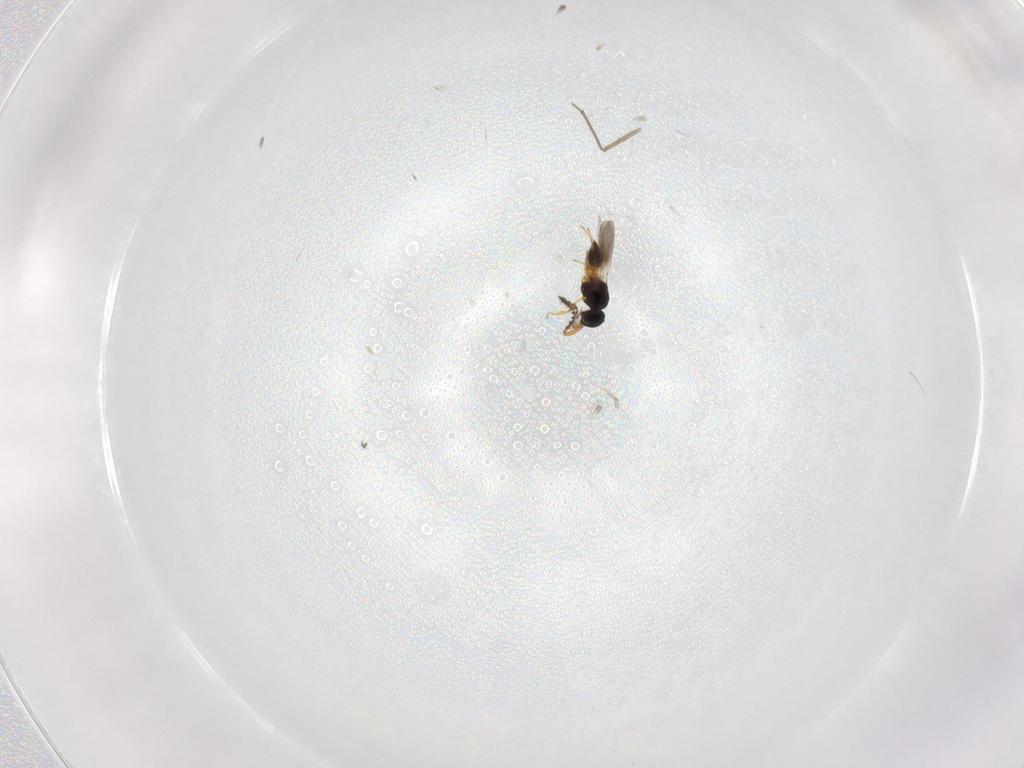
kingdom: Animalia
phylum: Arthropoda
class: Insecta
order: Hymenoptera
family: Platygastridae
